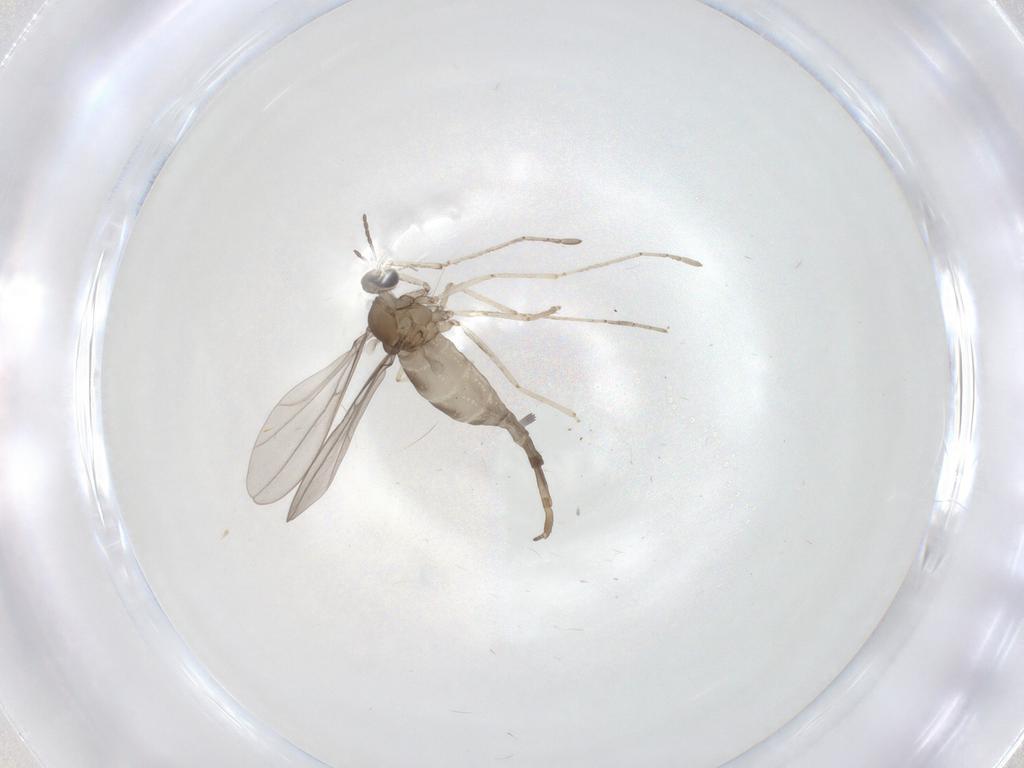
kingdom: Animalia
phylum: Arthropoda
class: Insecta
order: Diptera
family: Cecidomyiidae
